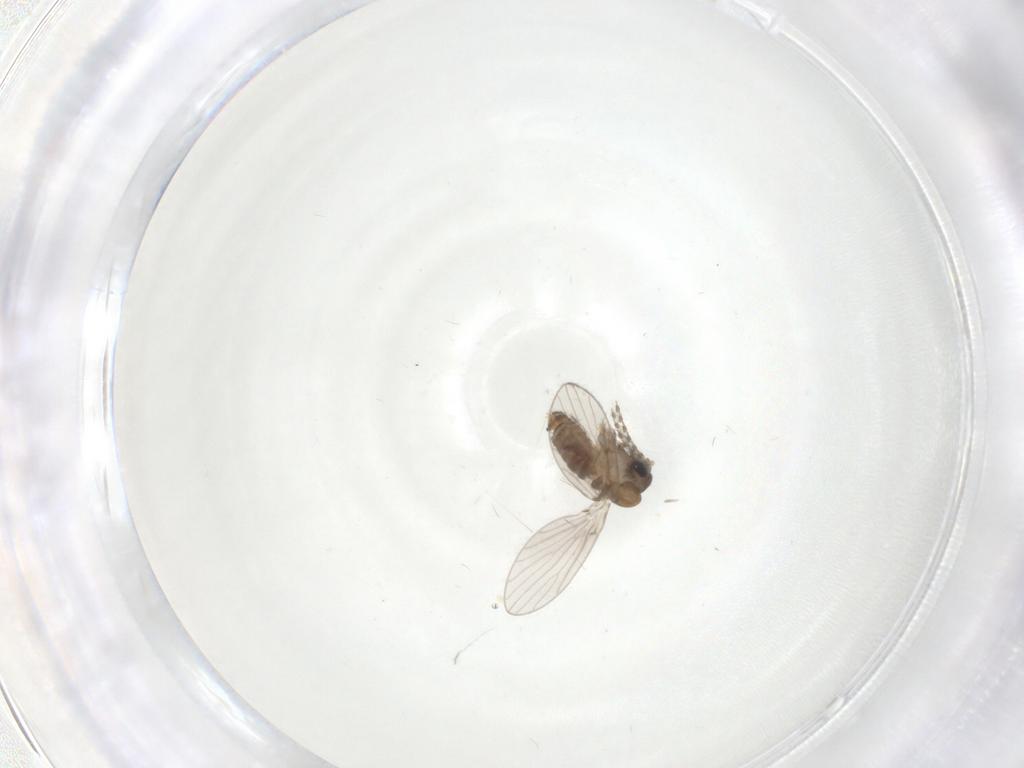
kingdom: Animalia
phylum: Arthropoda
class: Insecta
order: Diptera
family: Psychodidae
